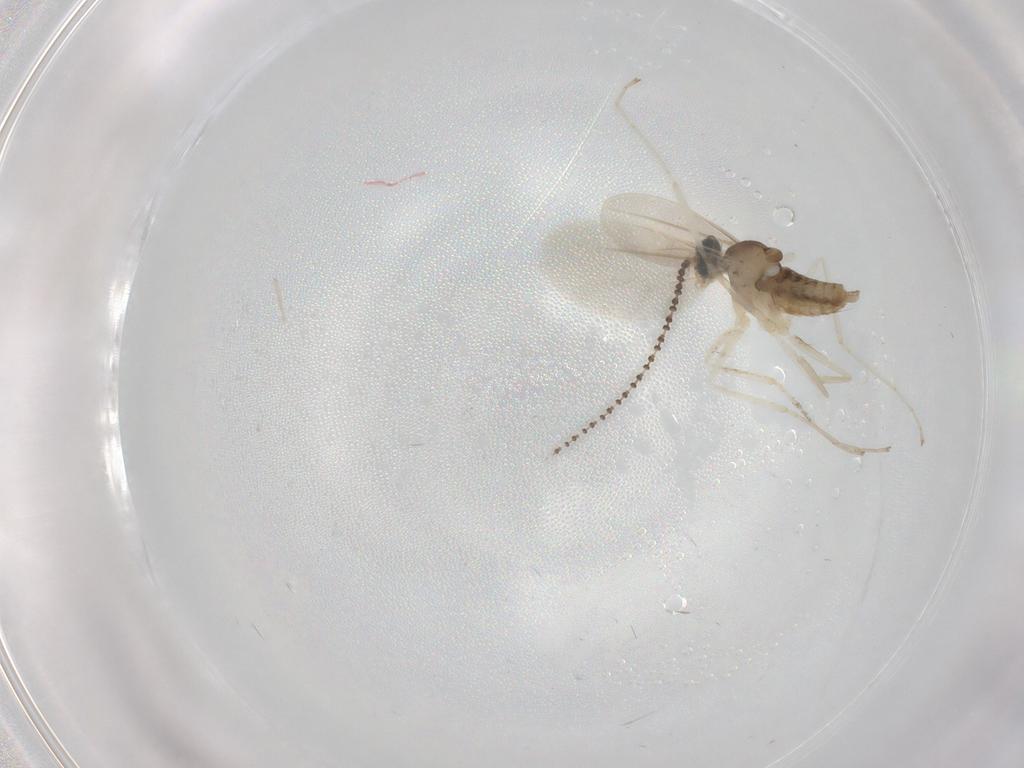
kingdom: Animalia
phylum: Arthropoda
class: Insecta
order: Diptera
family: Cecidomyiidae
